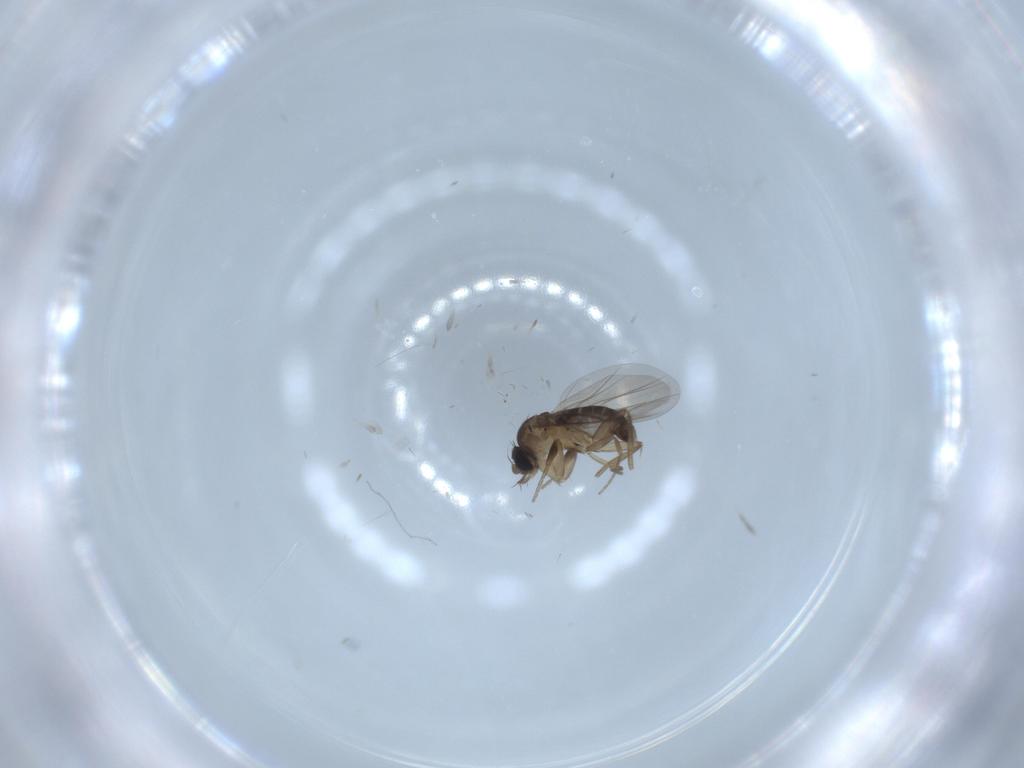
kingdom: Animalia
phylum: Arthropoda
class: Insecta
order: Diptera
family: Phoridae
